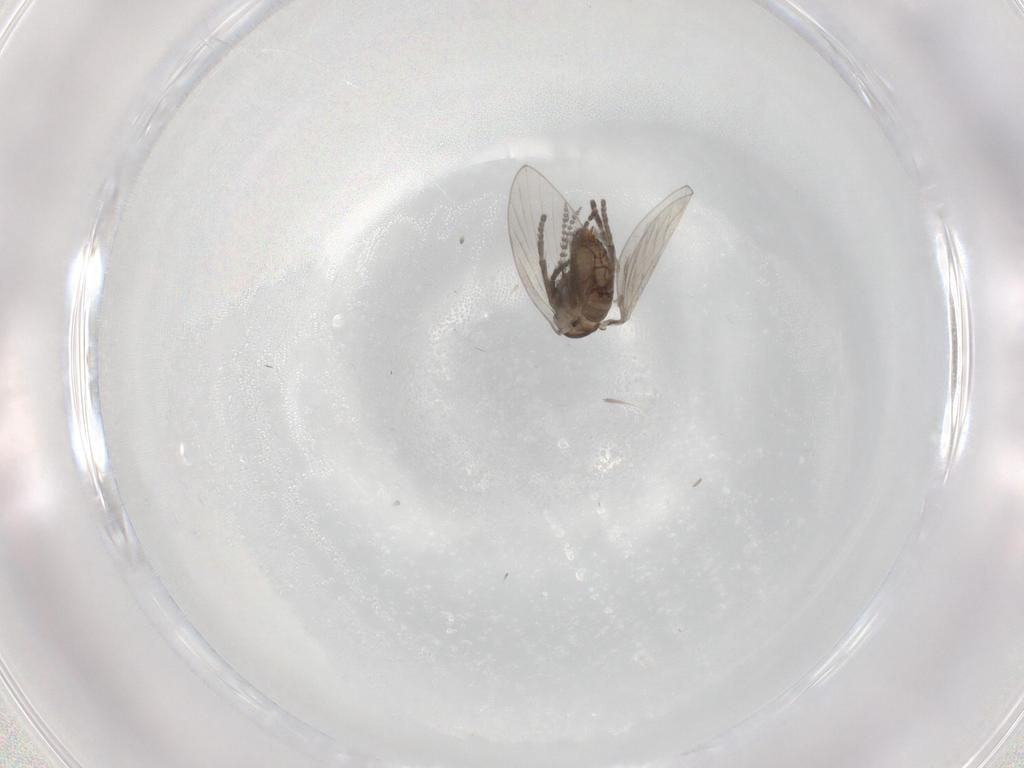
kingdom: Animalia
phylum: Arthropoda
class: Insecta
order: Diptera
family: Psychodidae
